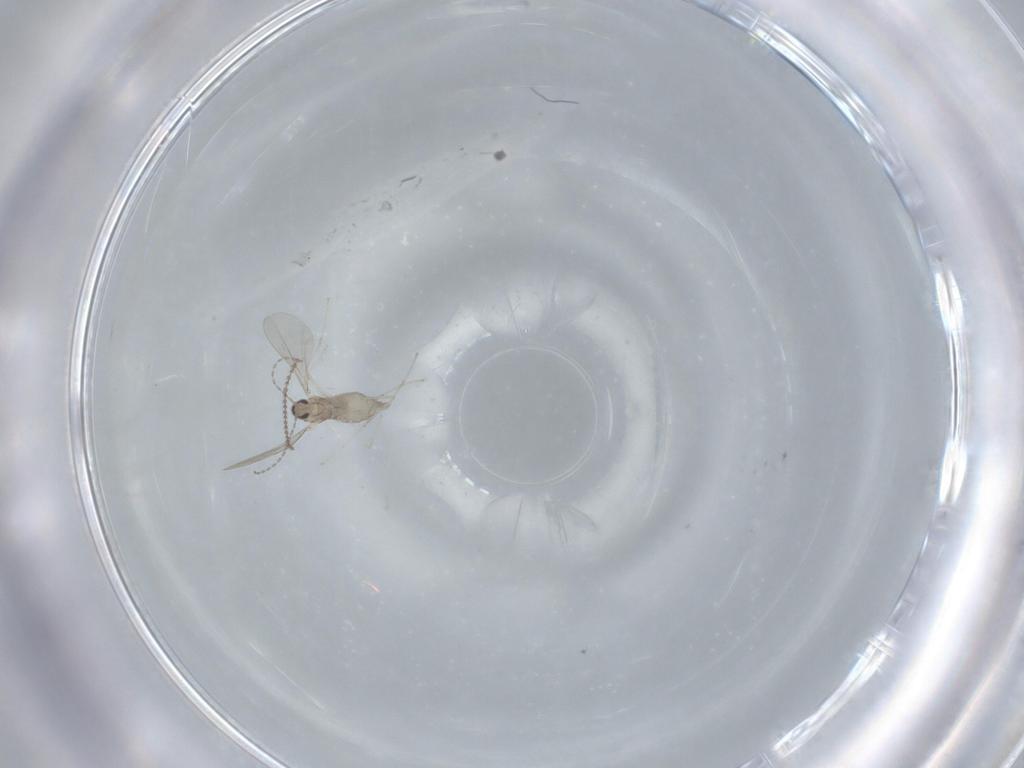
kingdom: Animalia
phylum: Arthropoda
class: Insecta
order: Diptera
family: Cecidomyiidae
